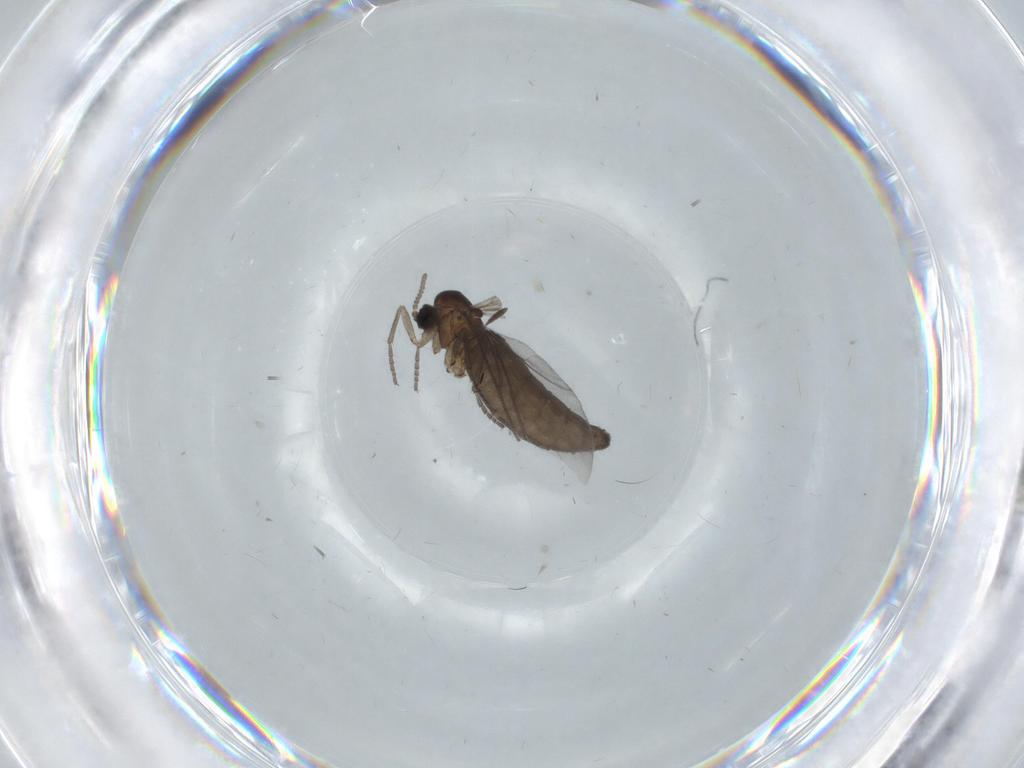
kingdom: Animalia
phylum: Arthropoda
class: Insecta
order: Diptera
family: Sciaridae
